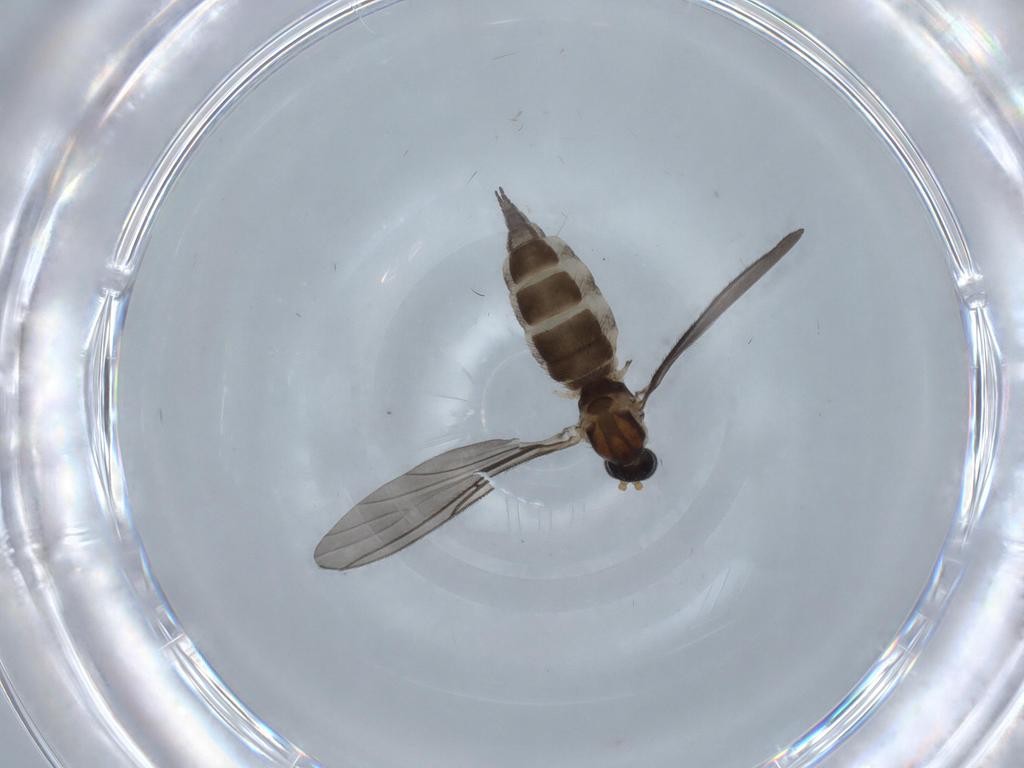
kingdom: Animalia
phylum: Arthropoda
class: Insecta
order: Diptera
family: Sciaridae
